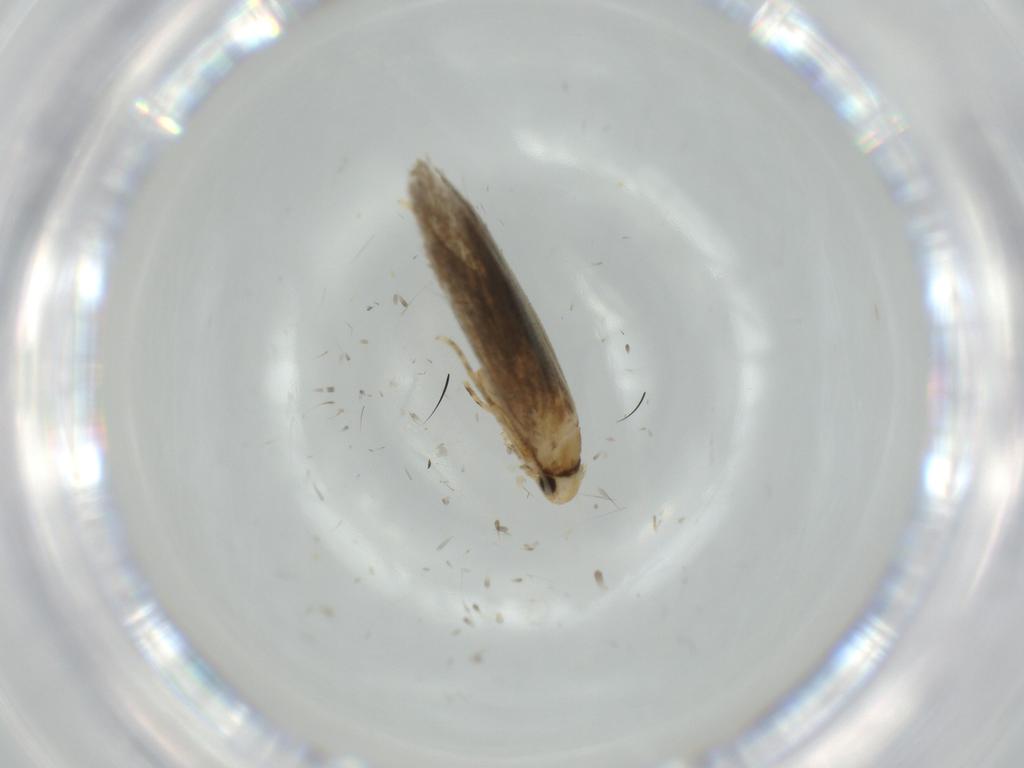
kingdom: Animalia
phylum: Arthropoda
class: Insecta
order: Lepidoptera
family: Tineidae
